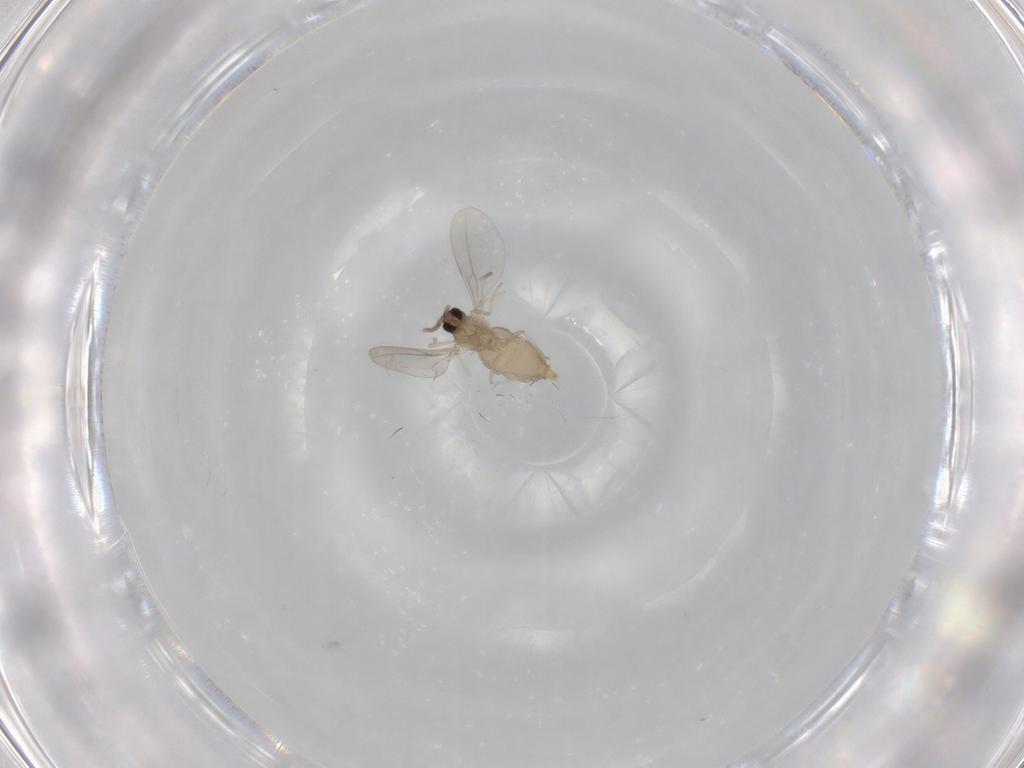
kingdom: Animalia
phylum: Arthropoda
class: Insecta
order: Diptera
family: Cecidomyiidae
